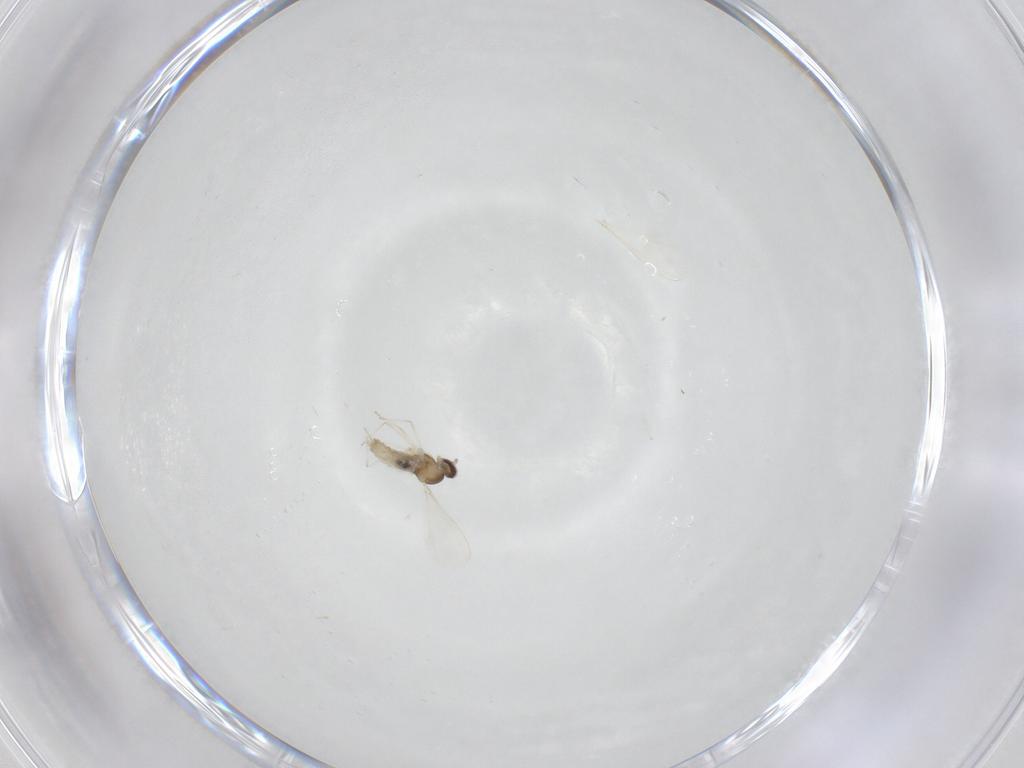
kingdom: Animalia
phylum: Arthropoda
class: Insecta
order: Diptera
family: Cecidomyiidae
